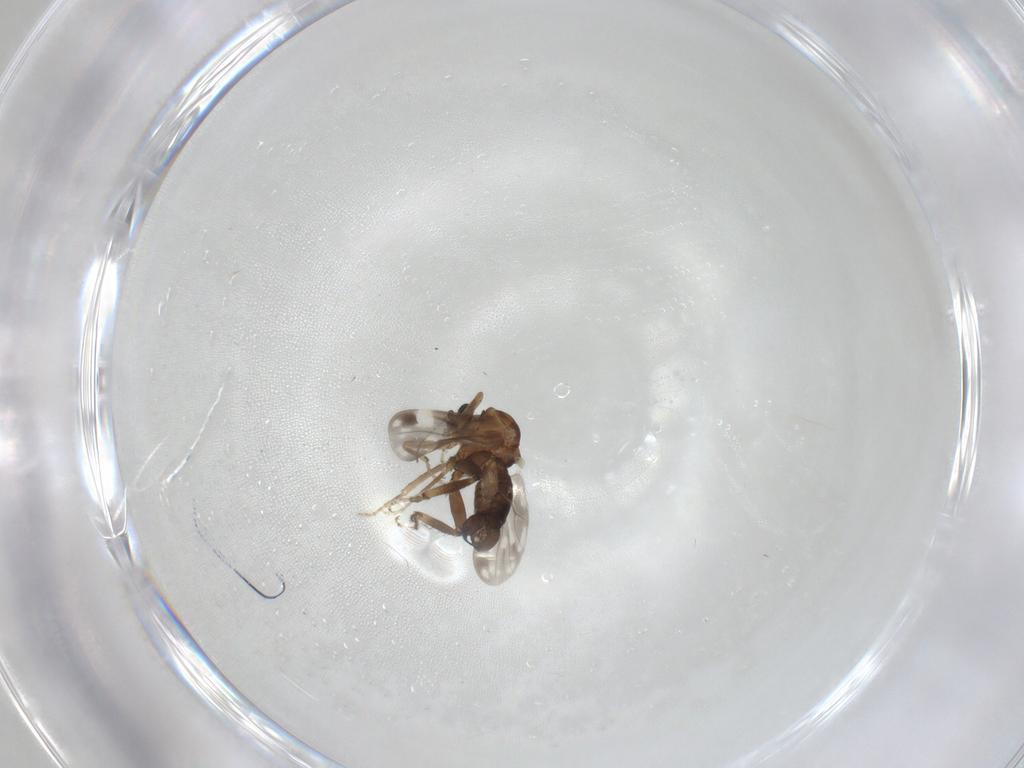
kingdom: Animalia
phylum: Arthropoda
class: Insecta
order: Diptera
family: Ceratopogonidae
